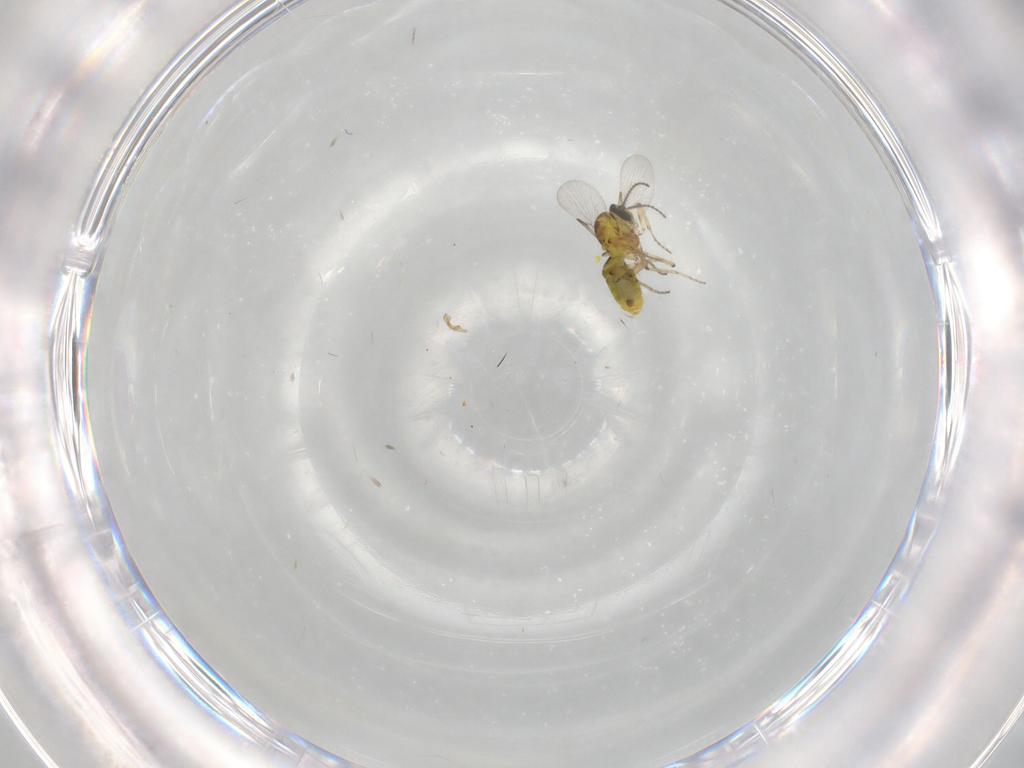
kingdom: Animalia
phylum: Arthropoda
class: Insecta
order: Diptera
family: Ceratopogonidae
